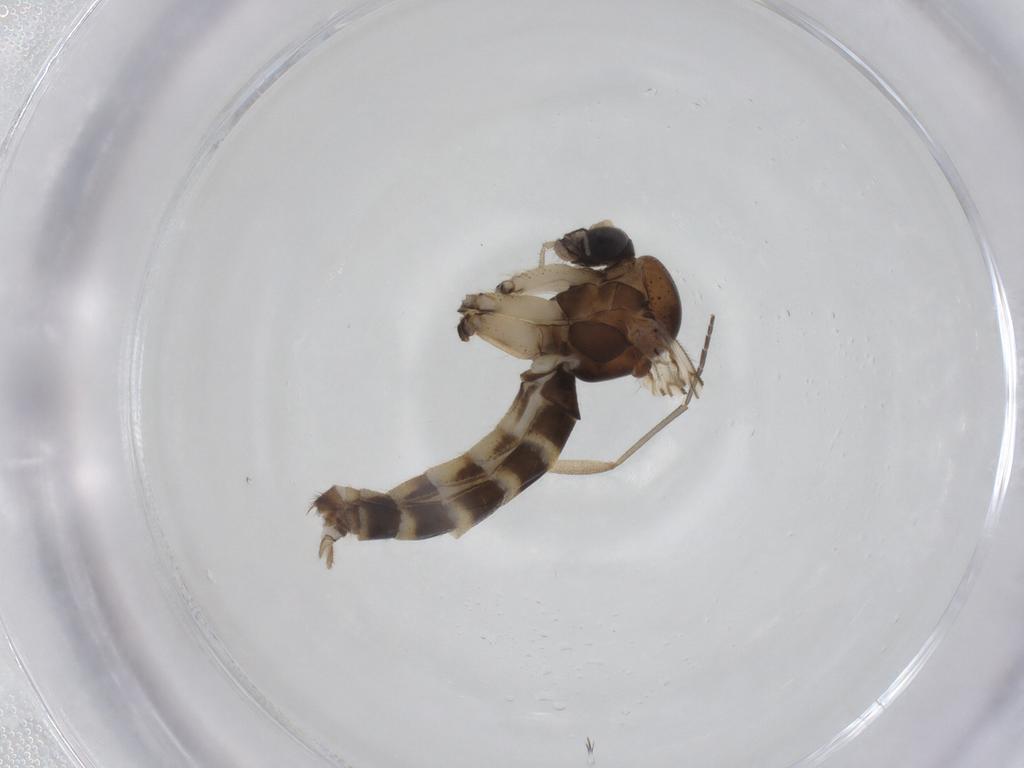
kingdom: Animalia
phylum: Arthropoda
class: Insecta
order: Diptera
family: Mycetophilidae
